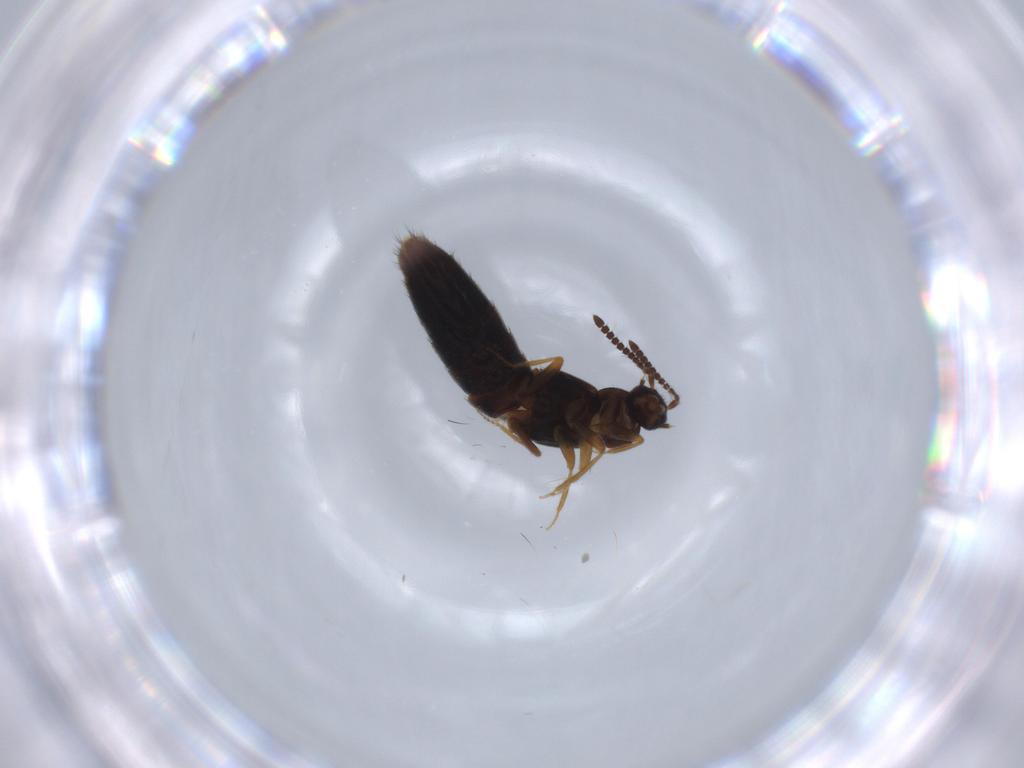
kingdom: Animalia
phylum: Arthropoda
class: Insecta
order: Coleoptera
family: Staphylinidae
